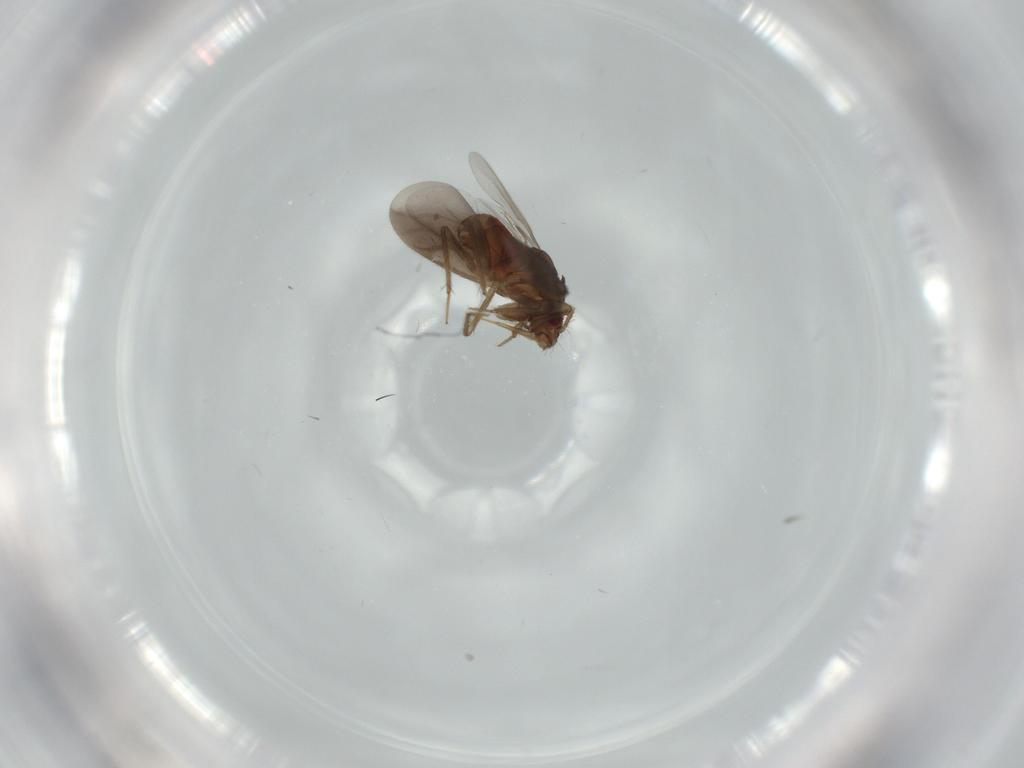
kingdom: Animalia
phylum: Arthropoda
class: Insecta
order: Hemiptera
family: Ceratocombidae
